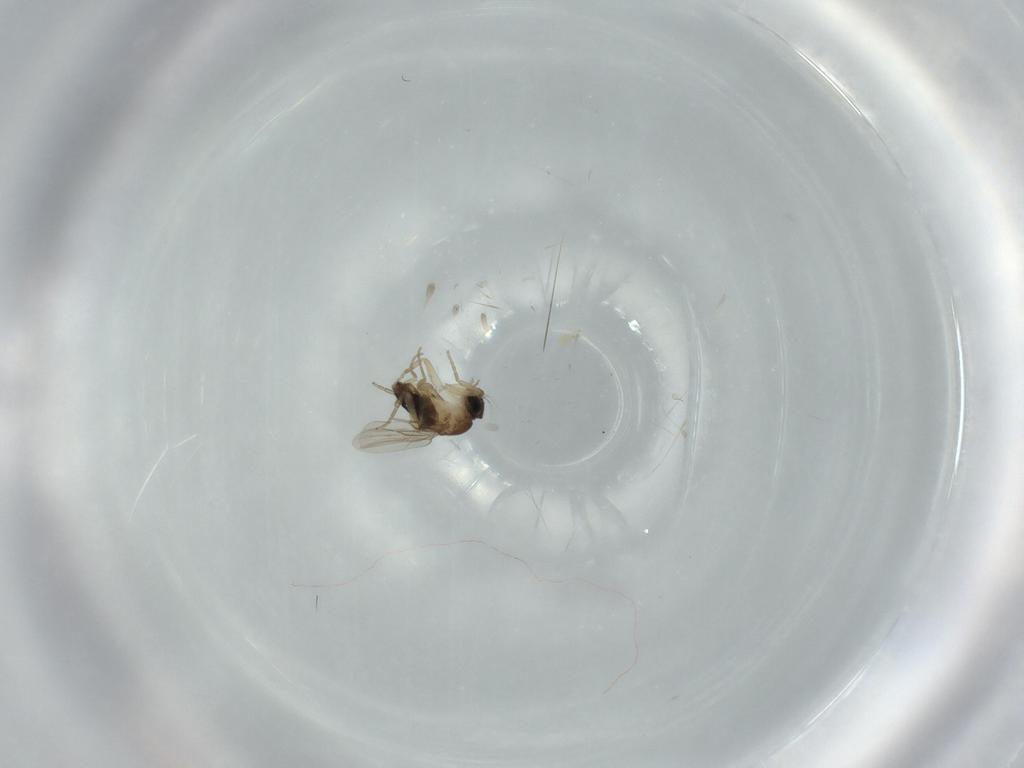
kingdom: Animalia
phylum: Arthropoda
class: Insecta
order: Diptera
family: Phoridae
